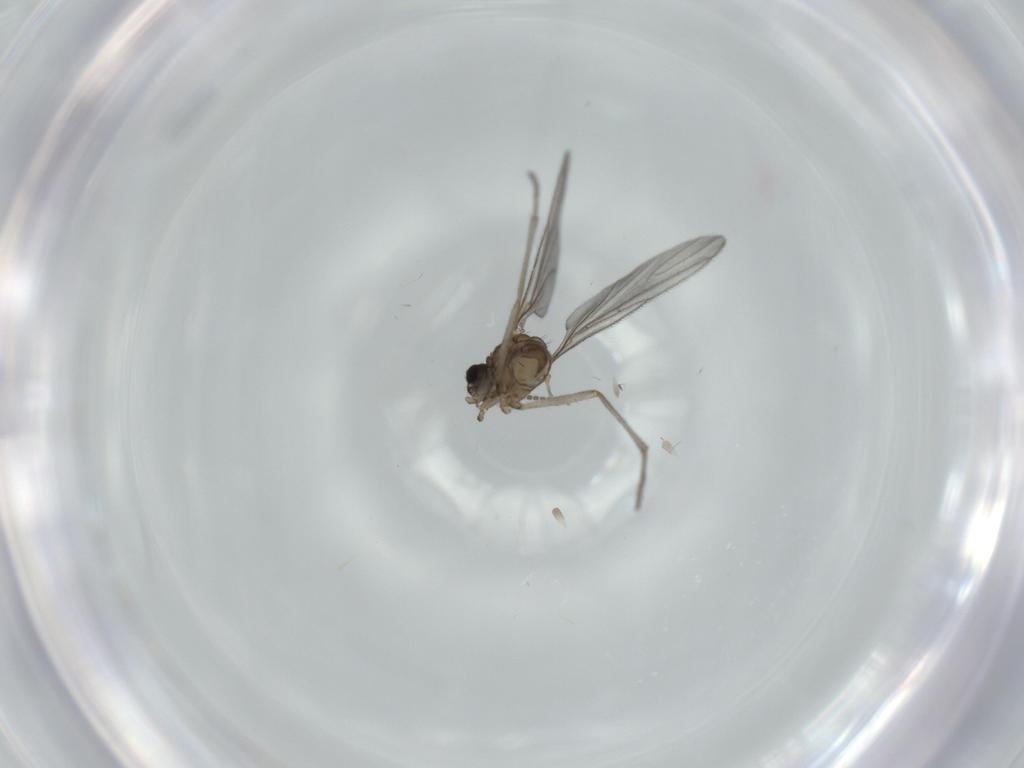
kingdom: Animalia
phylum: Arthropoda
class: Insecta
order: Diptera
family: Sciaridae
